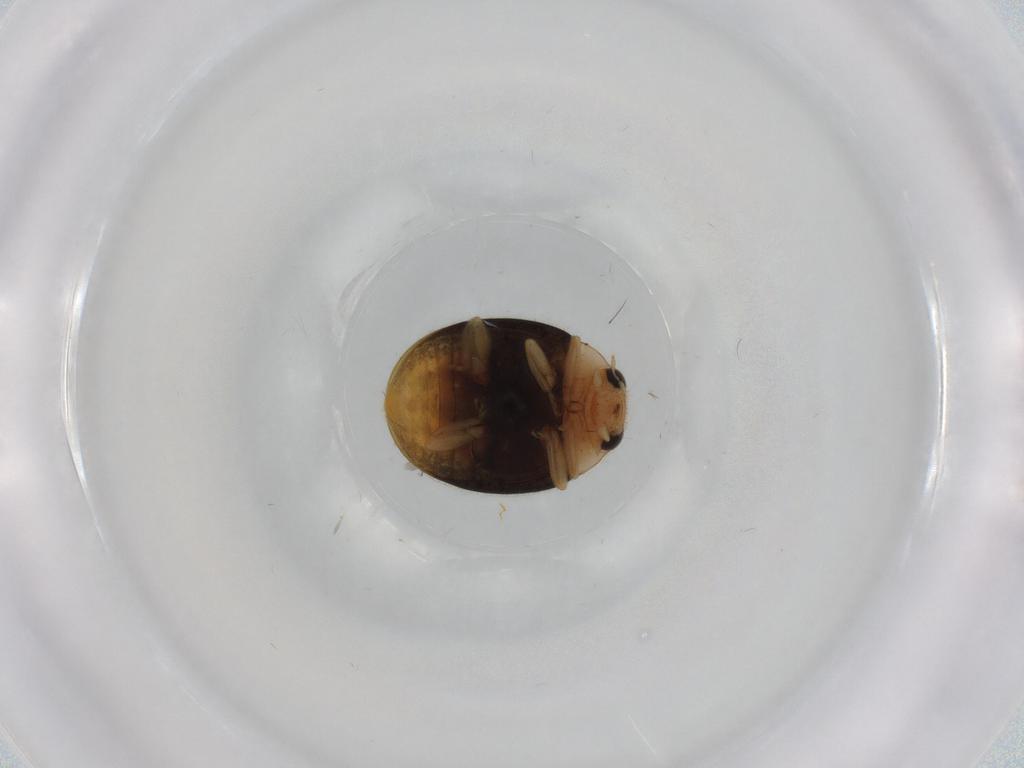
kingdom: Animalia
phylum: Arthropoda
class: Insecta
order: Coleoptera
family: Coccinellidae
